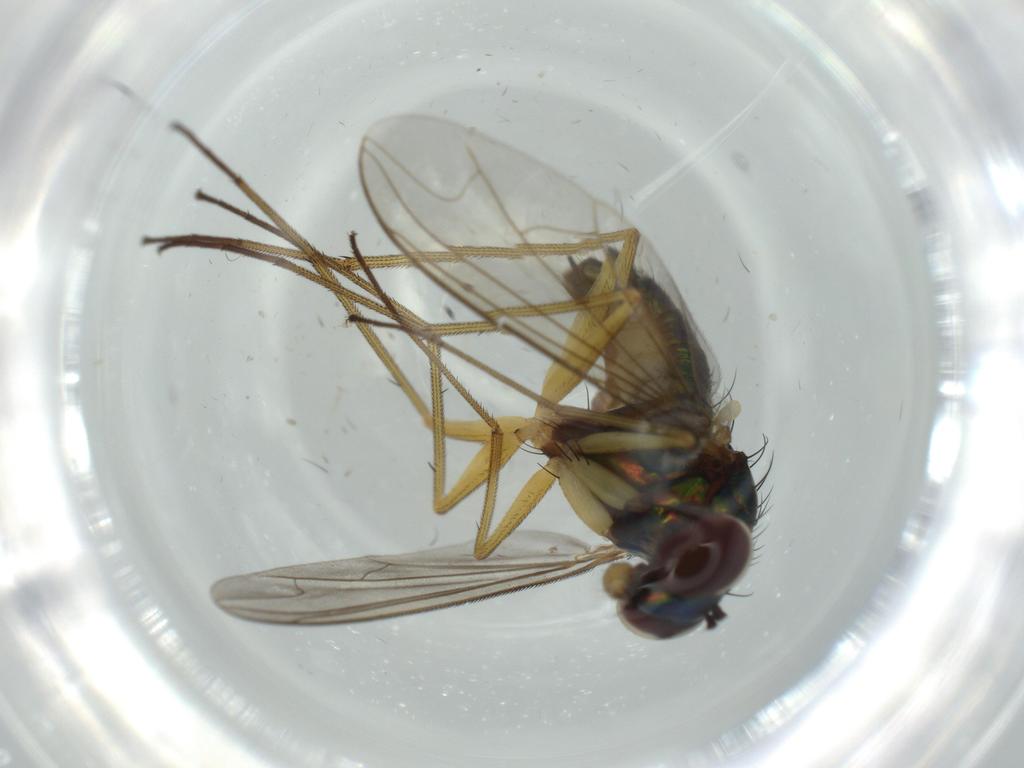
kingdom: Animalia
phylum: Arthropoda
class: Insecta
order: Diptera
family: Dolichopodidae
